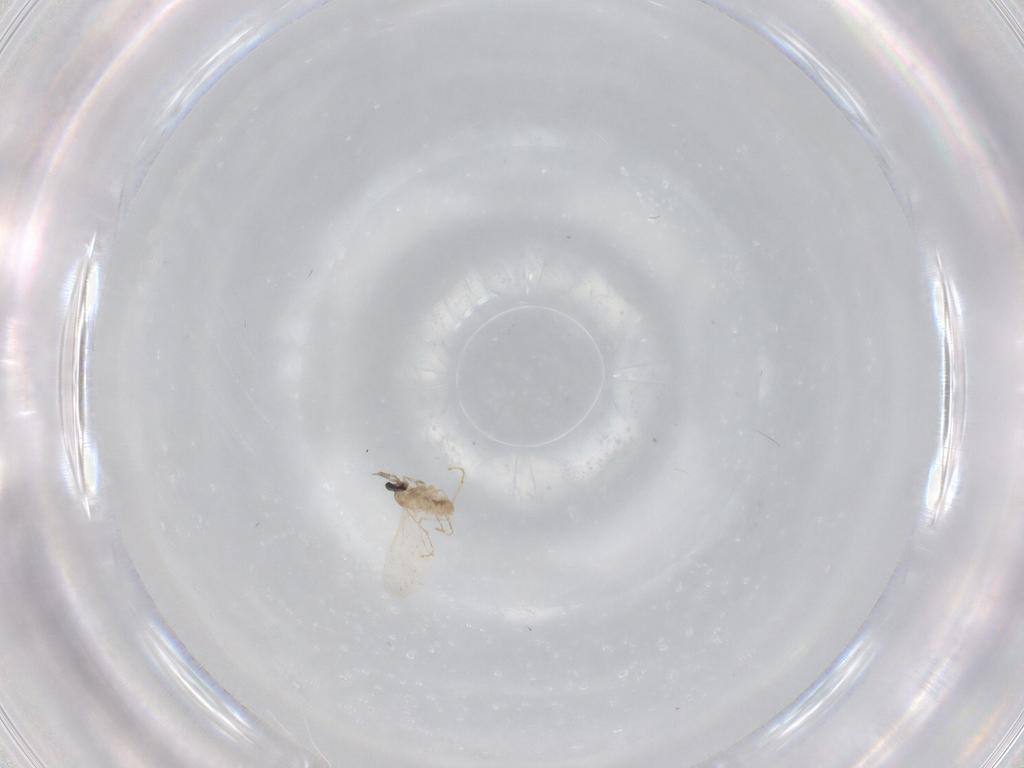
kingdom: Animalia
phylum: Arthropoda
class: Insecta
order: Diptera
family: Cecidomyiidae
